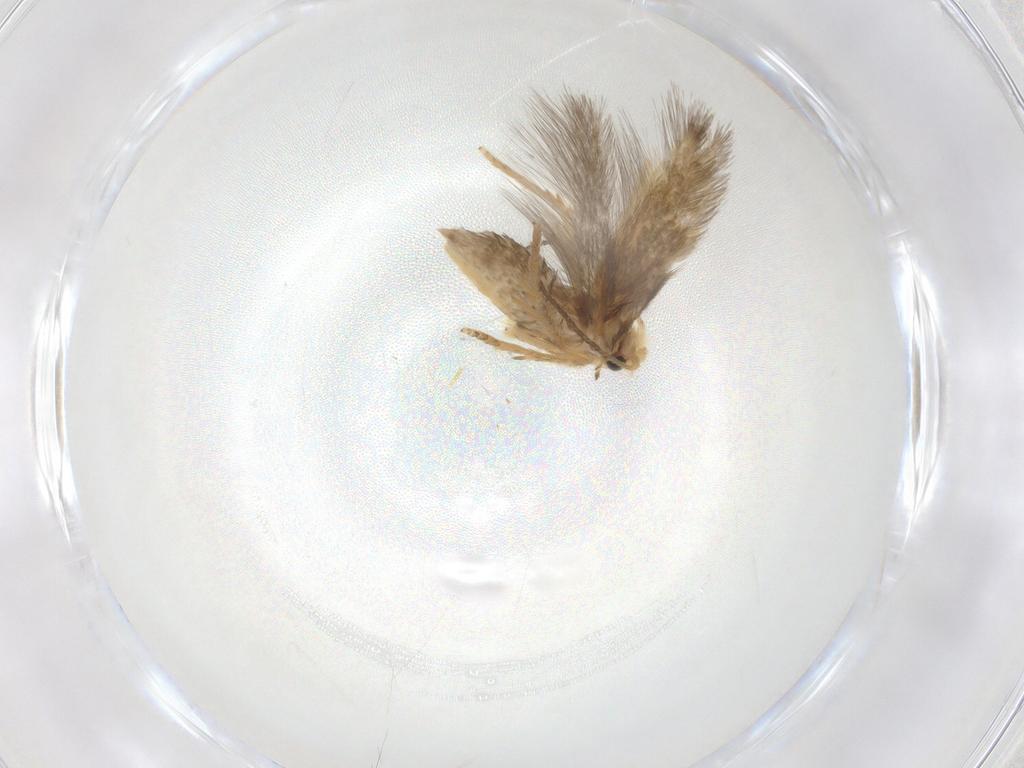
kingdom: Animalia
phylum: Arthropoda
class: Insecta
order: Lepidoptera
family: Nepticulidae
